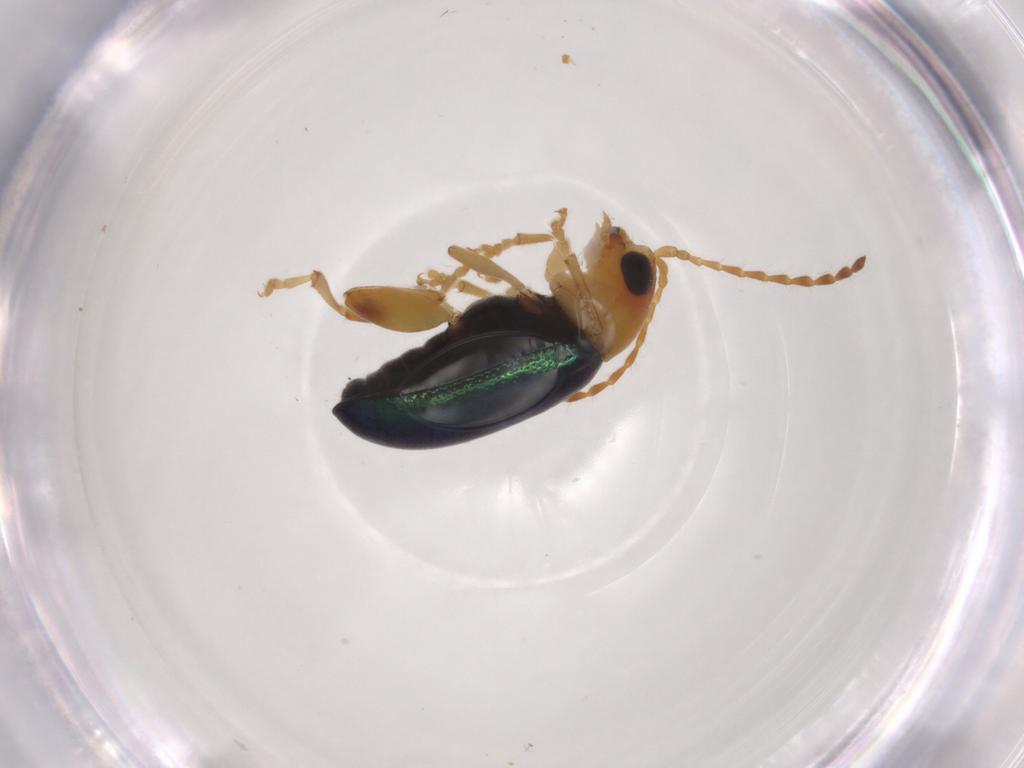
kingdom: Animalia
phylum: Arthropoda
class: Insecta
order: Coleoptera
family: Chrysomelidae
